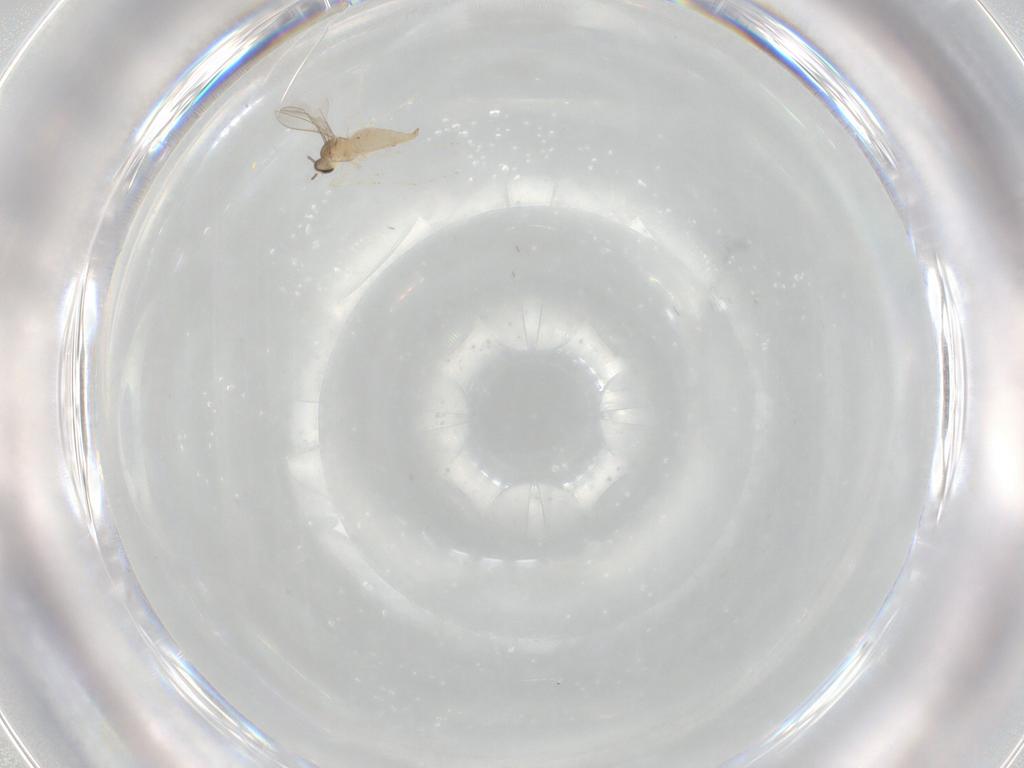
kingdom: Animalia
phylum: Arthropoda
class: Insecta
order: Diptera
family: Cecidomyiidae
